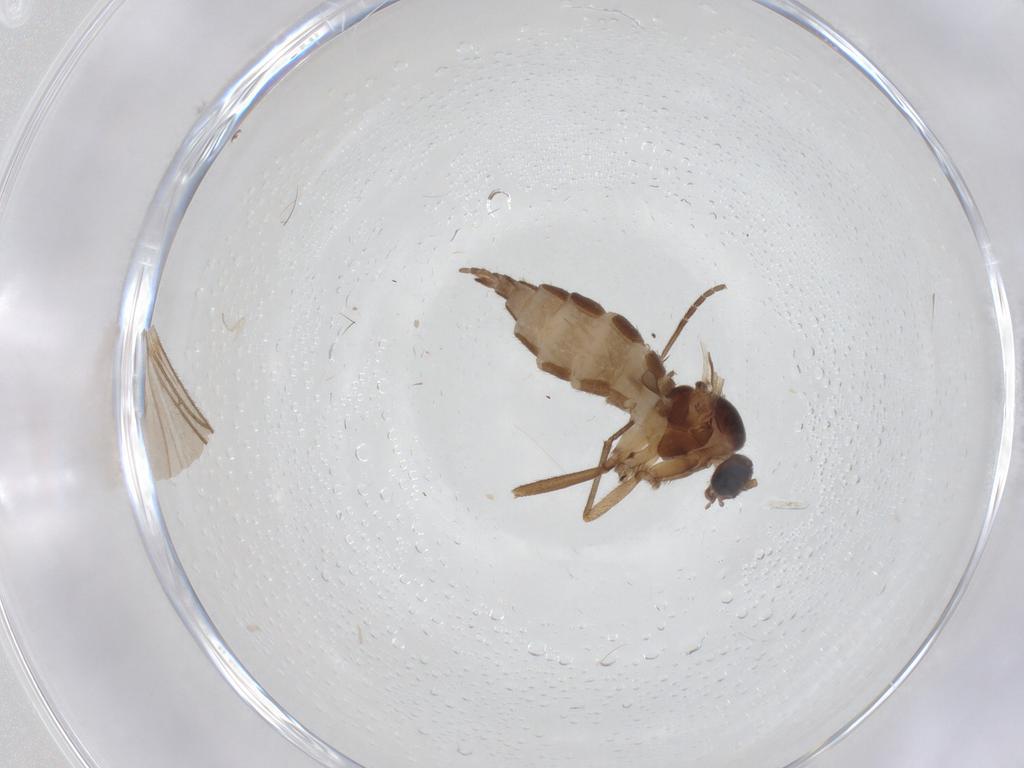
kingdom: Animalia
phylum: Arthropoda
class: Insecta
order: Diptera
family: Sciaridae
